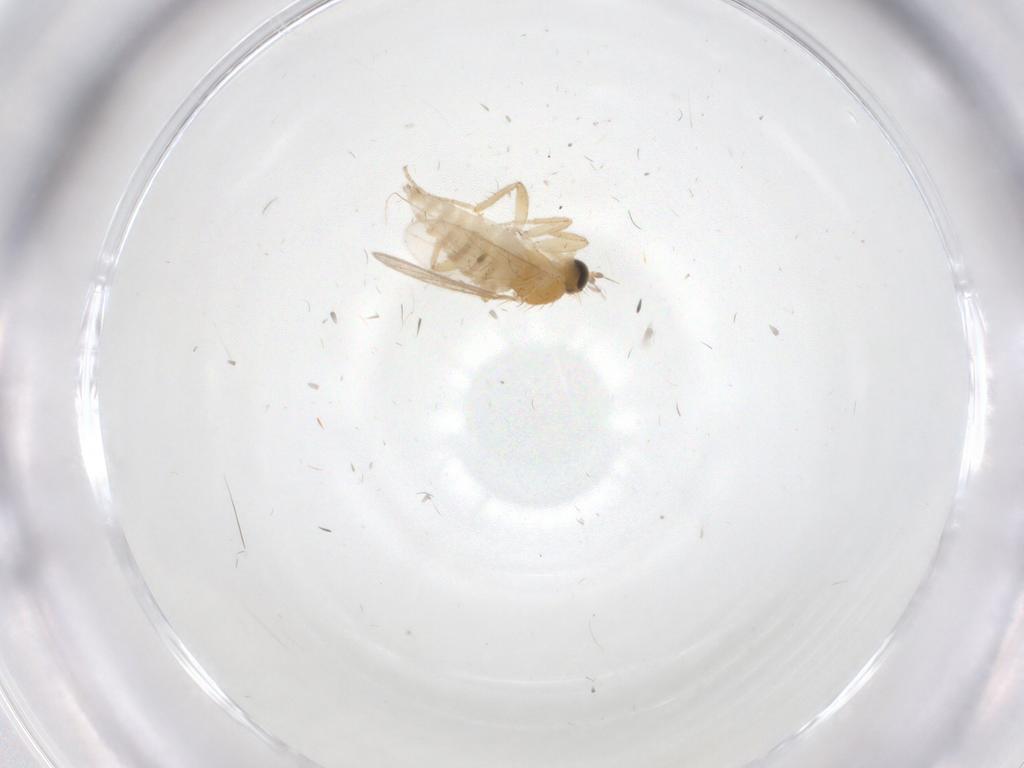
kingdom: Animalia
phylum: Arthropoda
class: Insecta
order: Diptera
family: Hybotidae
